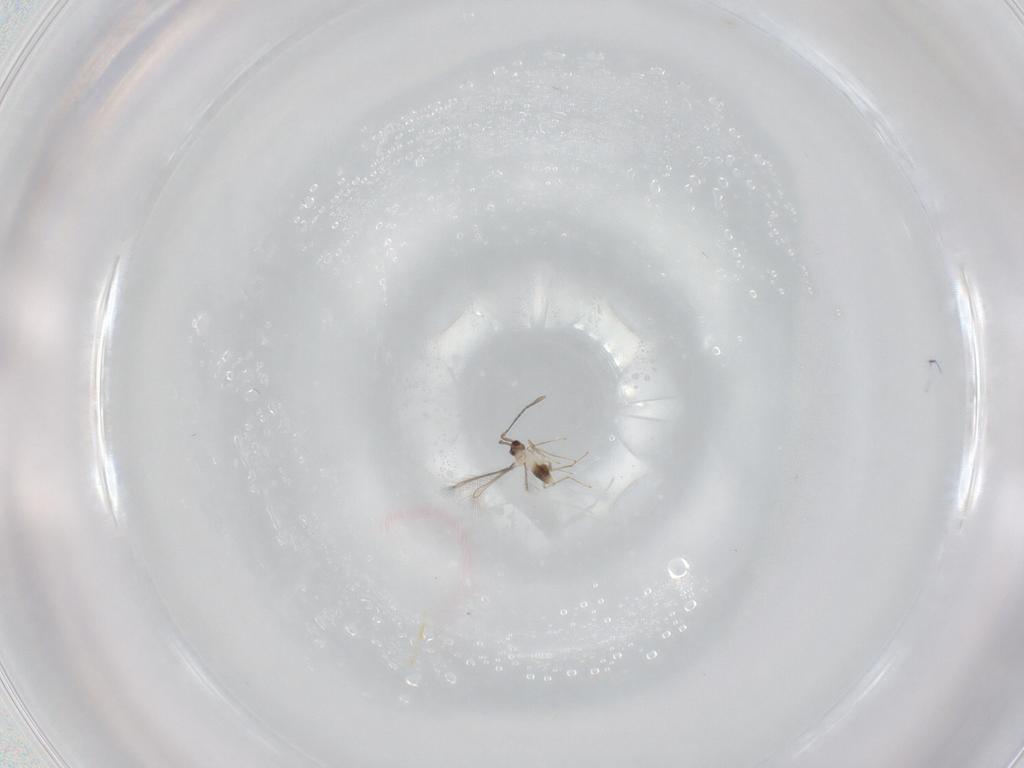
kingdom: Animalia
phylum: Arthropoda
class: Insecta
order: Hymenoptera
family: Mymaridae
